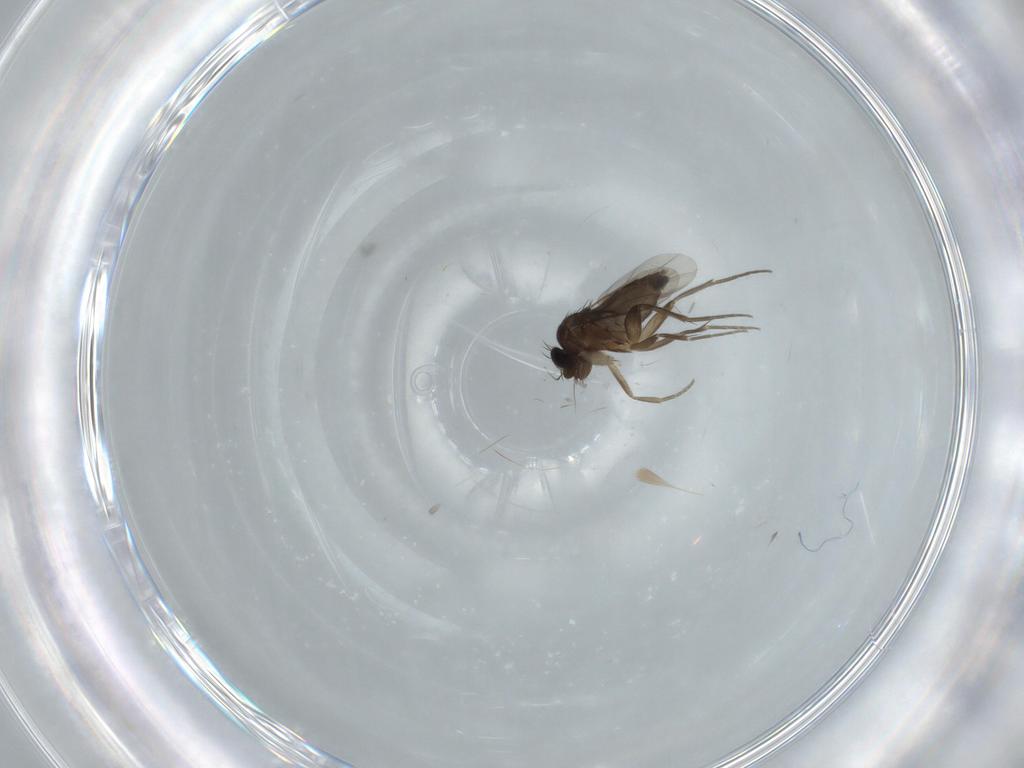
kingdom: Animalia
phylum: Arthropoda
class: Insecta
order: Diptera
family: Phoridae
